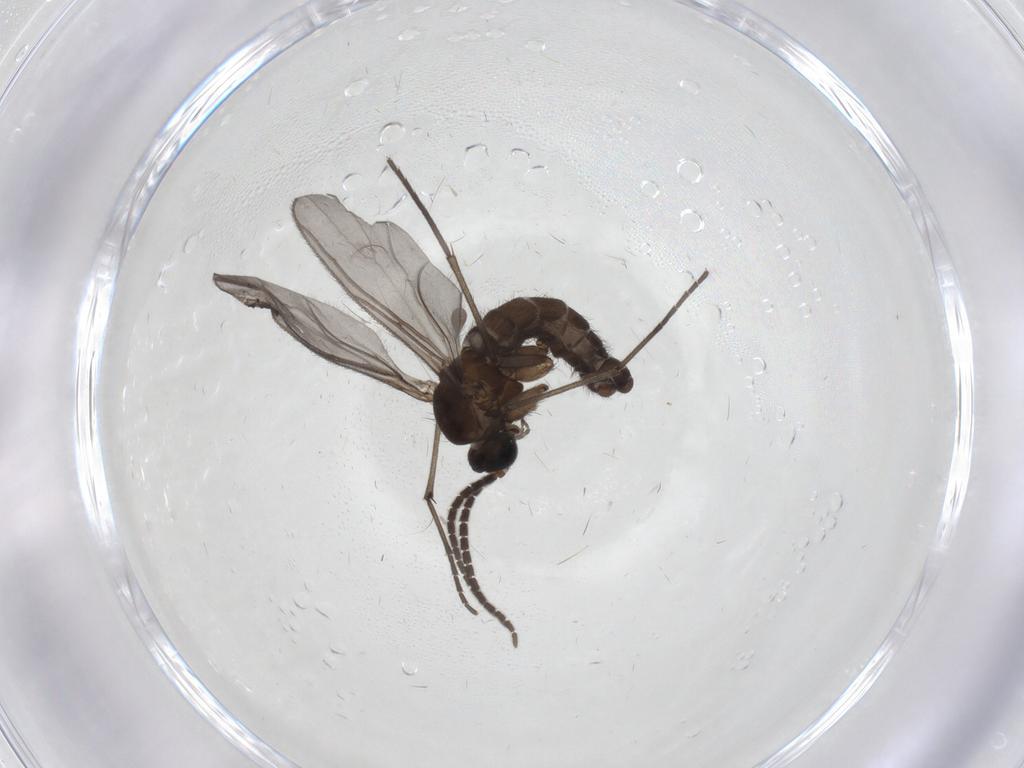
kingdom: Animalia
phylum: Arthropoda
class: Insecta
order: Diptera
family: Sciaridae
